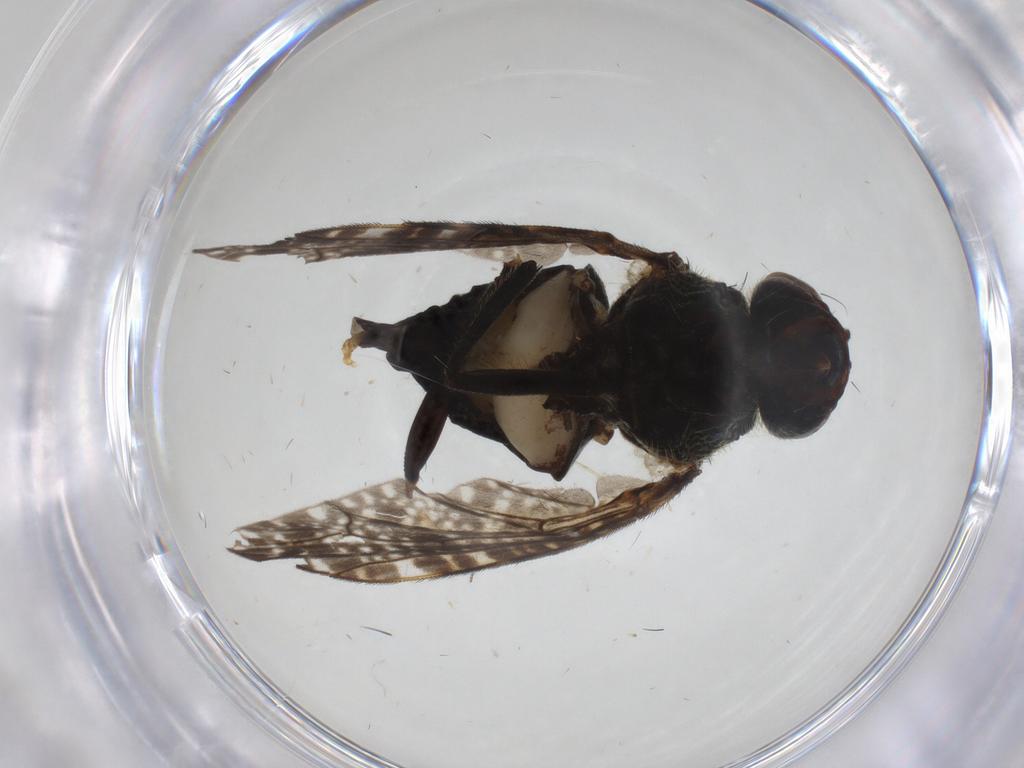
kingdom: Animalia
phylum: Arthropoda
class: Insecta
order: Diptera
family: Platystomatidae
